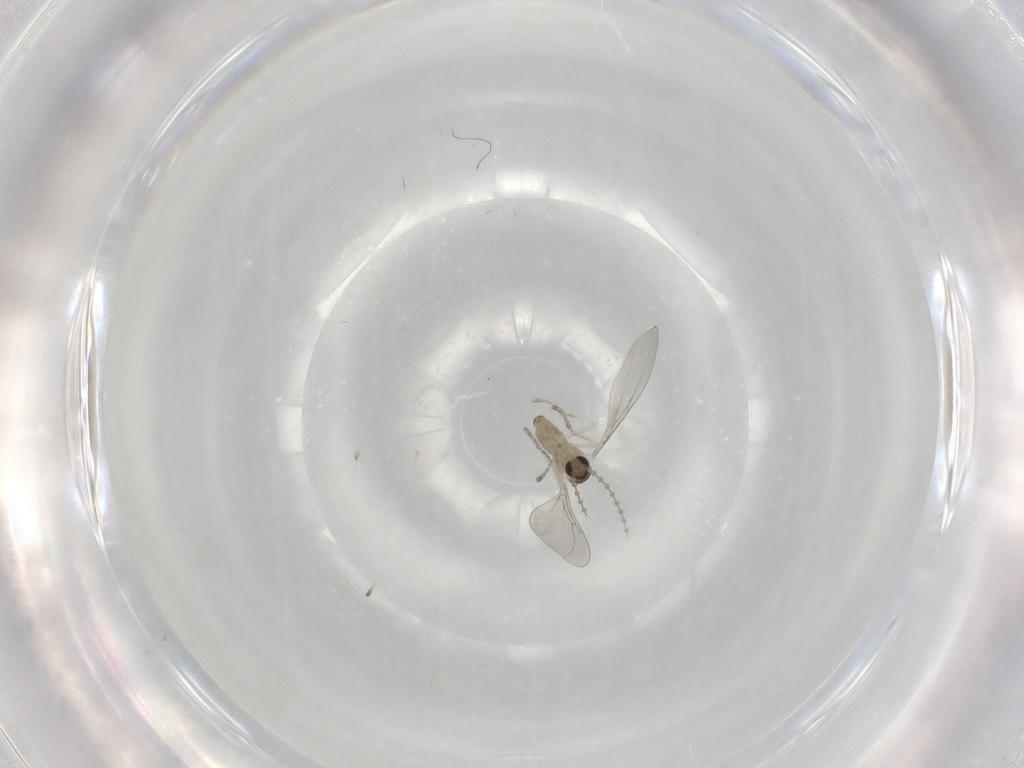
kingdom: Animalia
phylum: Arthropoda
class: Insecta
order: Diptera
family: Cecidomyiidae
